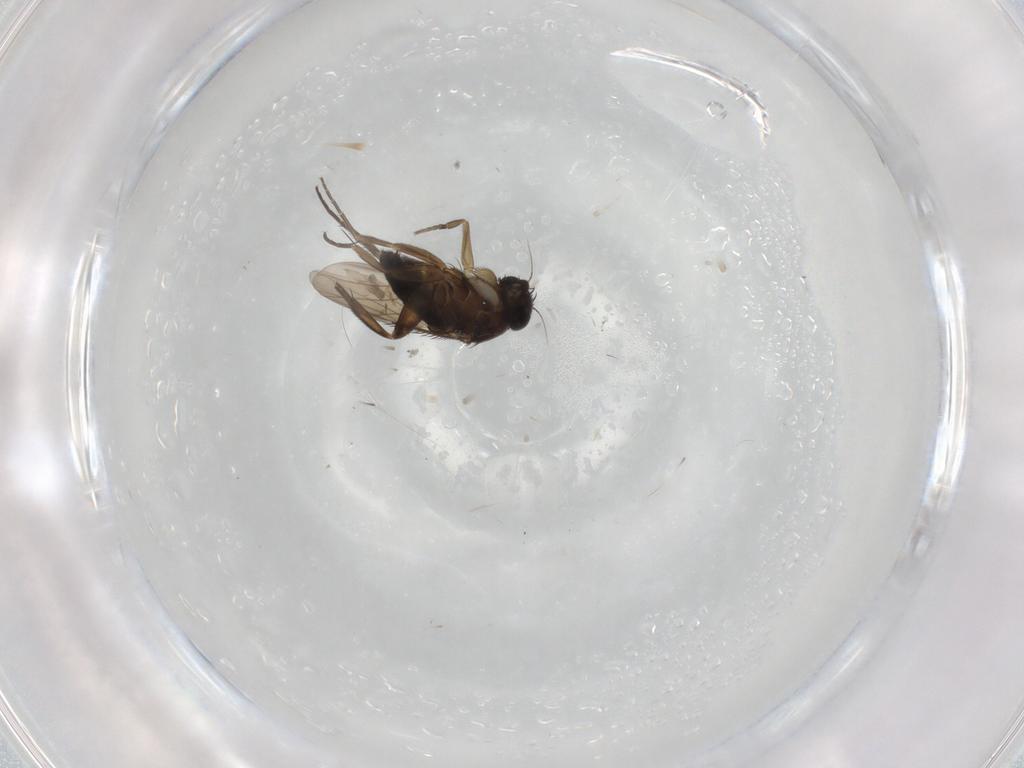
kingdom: Animalia
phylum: Arthropoda
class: Insecta
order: Diptera
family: Phoridae
